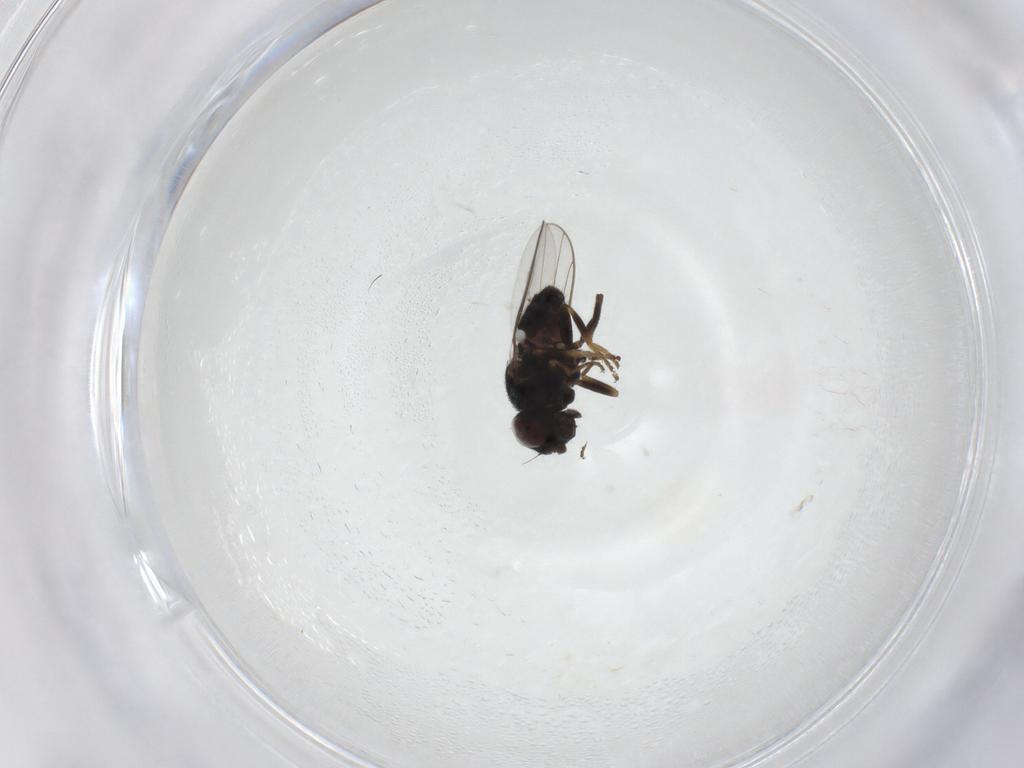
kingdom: Animalia
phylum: Arthropoda
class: Insecta
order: Diptera
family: Chloropidae
